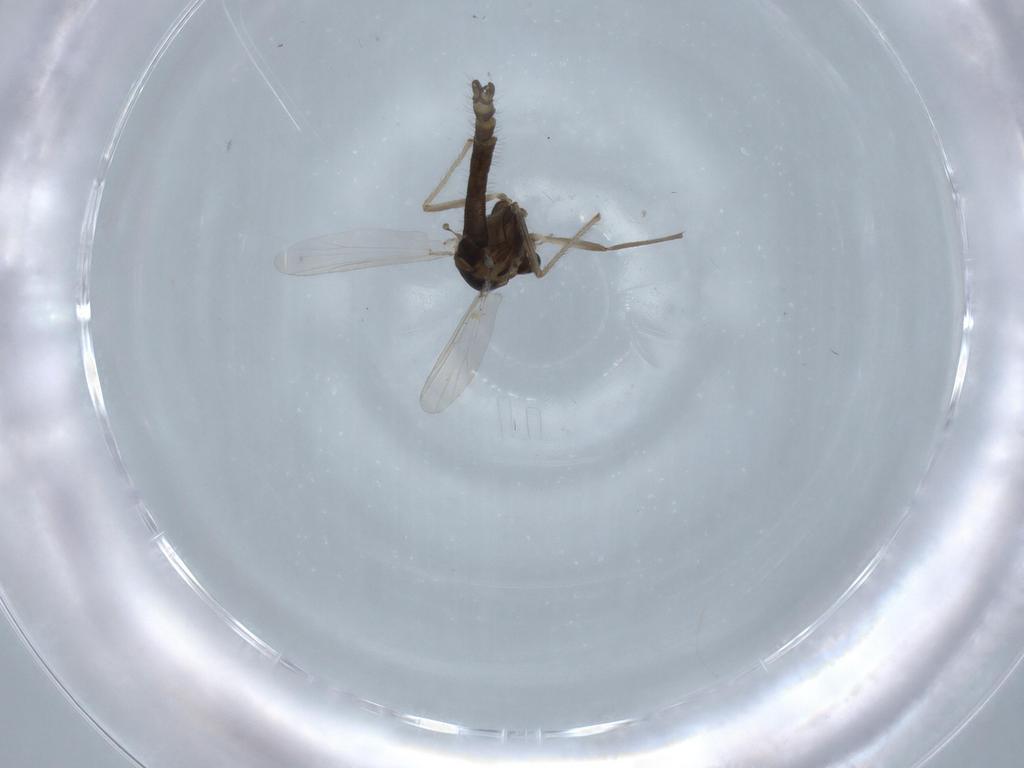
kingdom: Animalia
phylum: Arthropoda
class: Insecta
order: Diptera
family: Chironomidae
